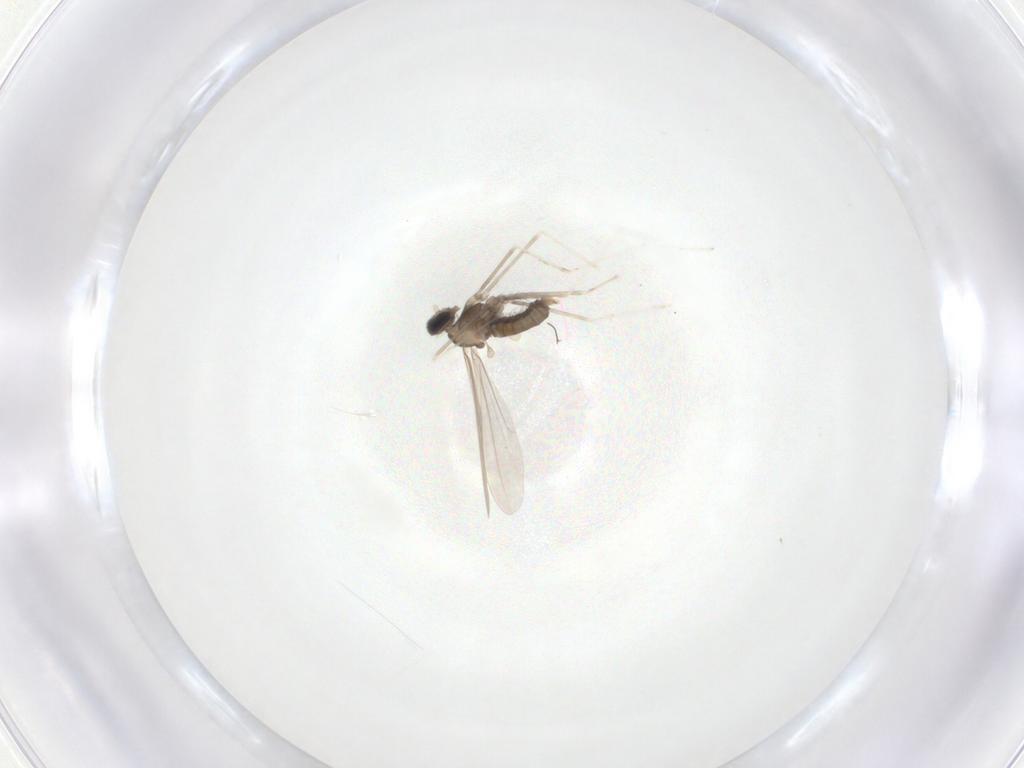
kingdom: Animalia
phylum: Arthropoda
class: Insecta
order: Diptera
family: Cecidomyiidae
